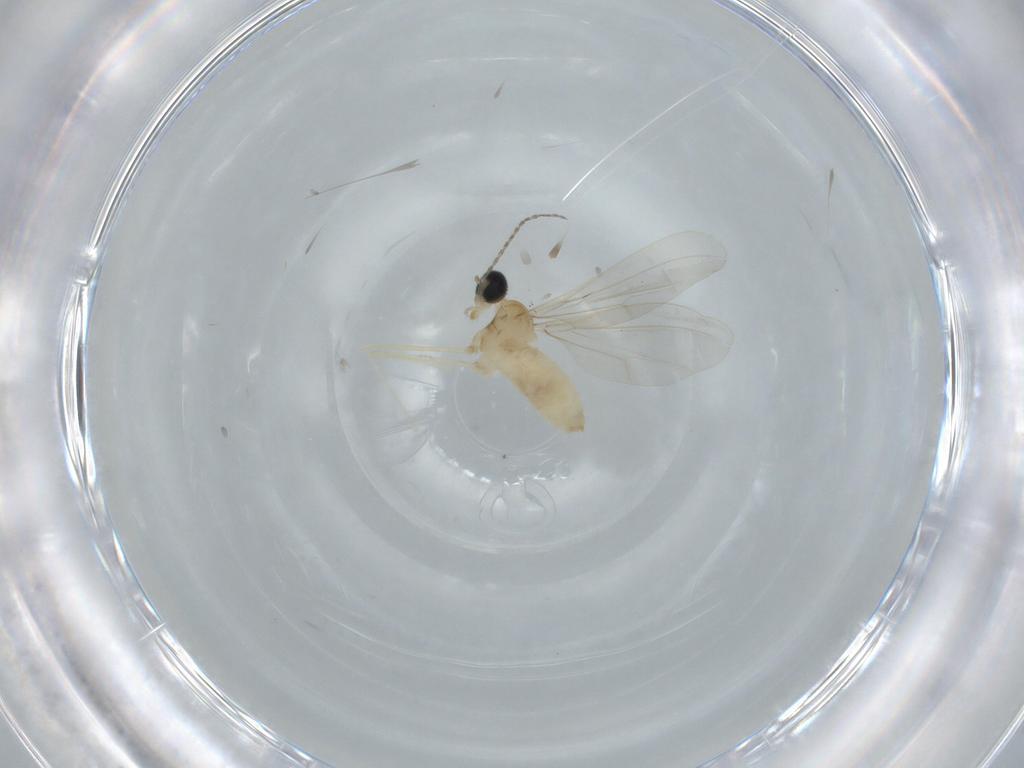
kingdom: Animalia
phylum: Arthropoda
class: Insecta
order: Diptera
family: Cecidomyiidae
